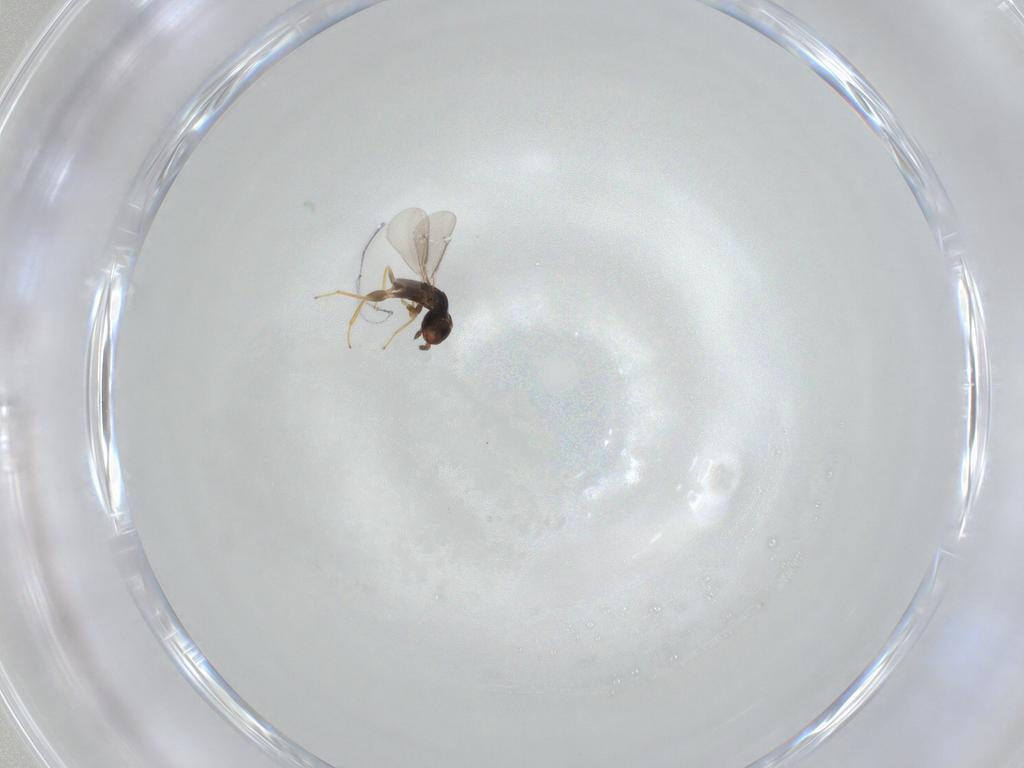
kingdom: Animalia
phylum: Arthropoda
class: Insecta
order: Hymenoptera
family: Eulophidae
